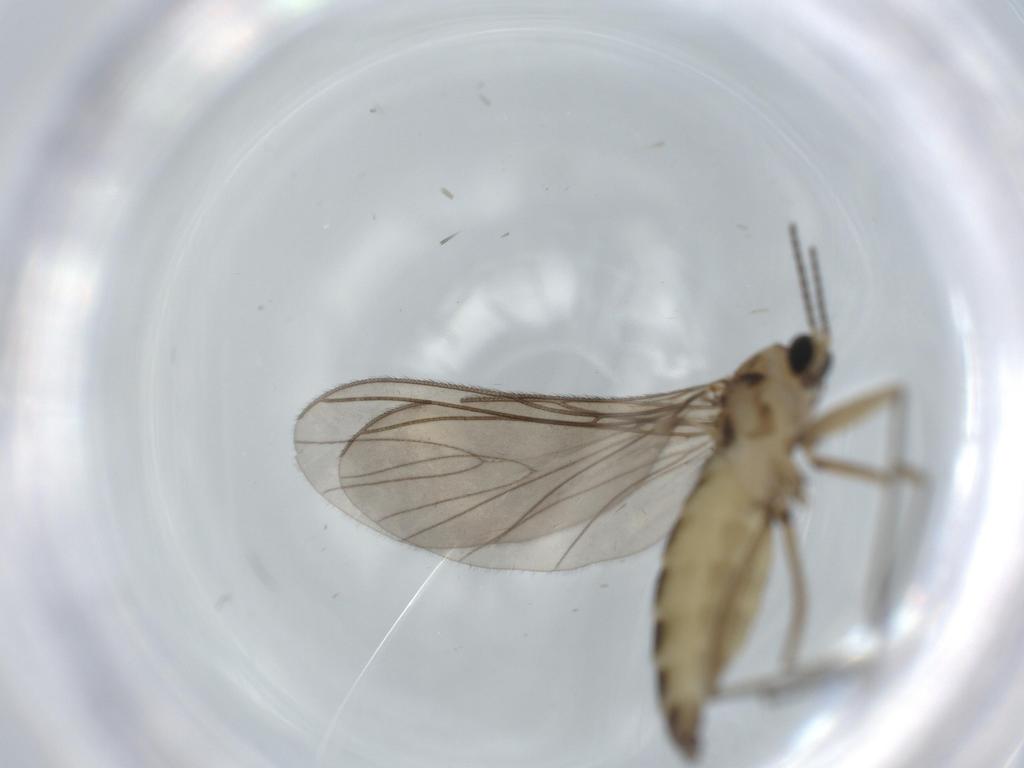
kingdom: Animalia
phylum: Arthropoda
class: Insecta
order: Diptera
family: Sciaridae
